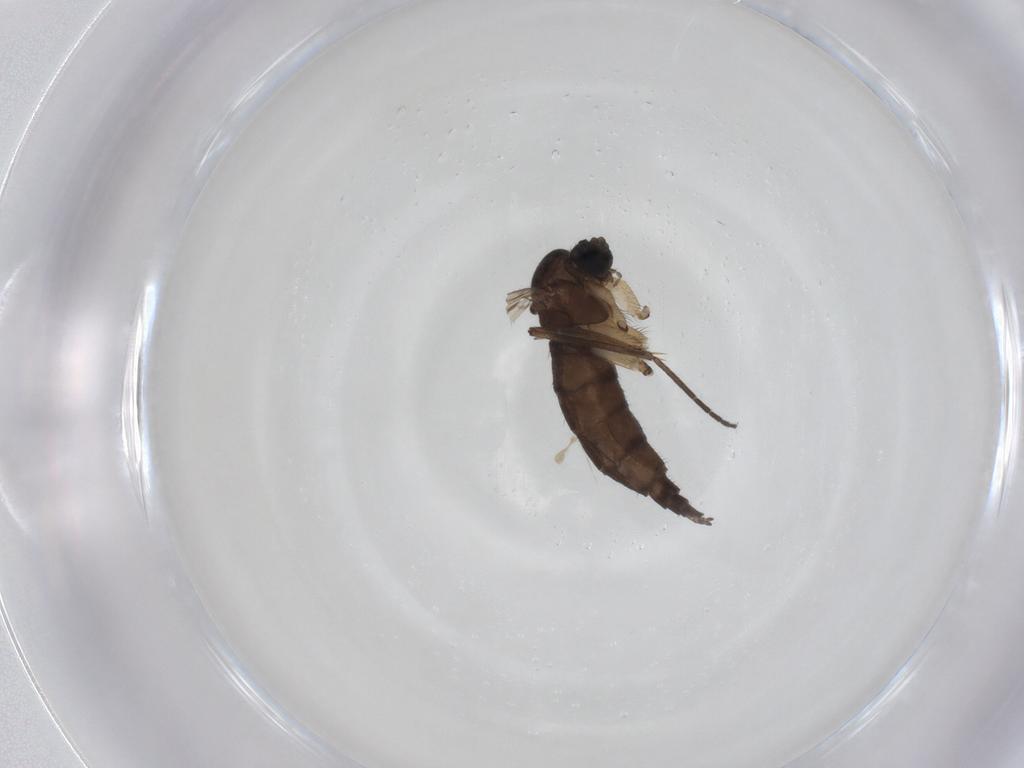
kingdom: Animalia
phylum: Arthropoda
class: Insecta
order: Diptera
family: Sciaridae
